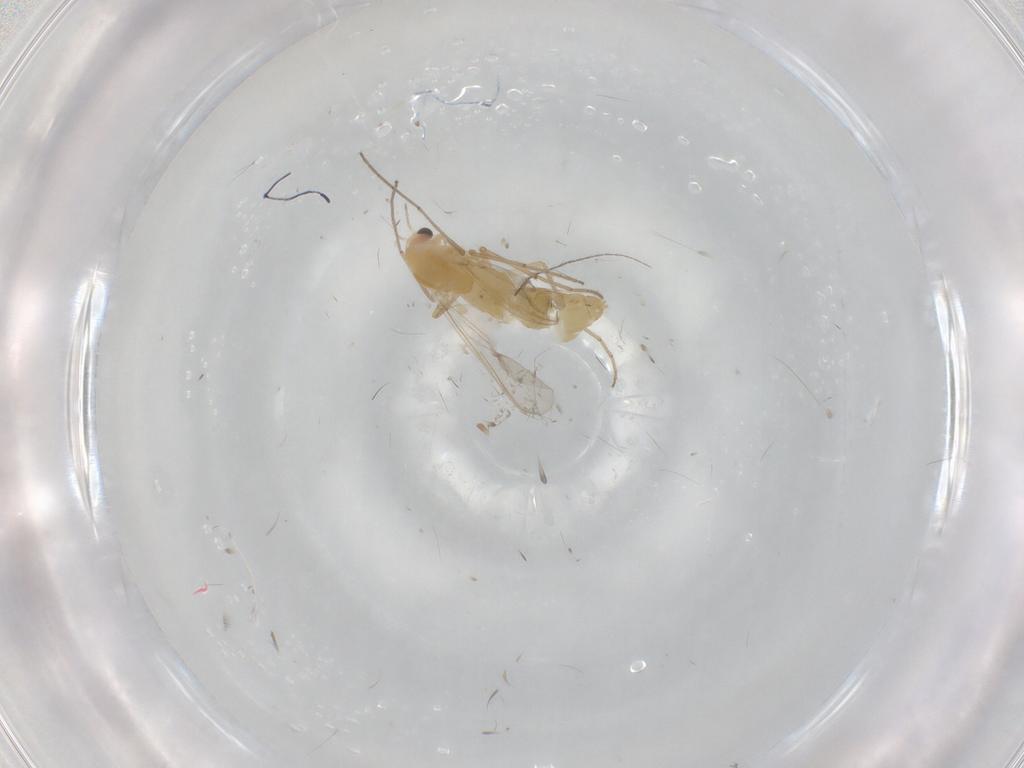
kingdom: Animalia
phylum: Arthropoda
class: Insecta
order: Diptera
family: Chironomidae
